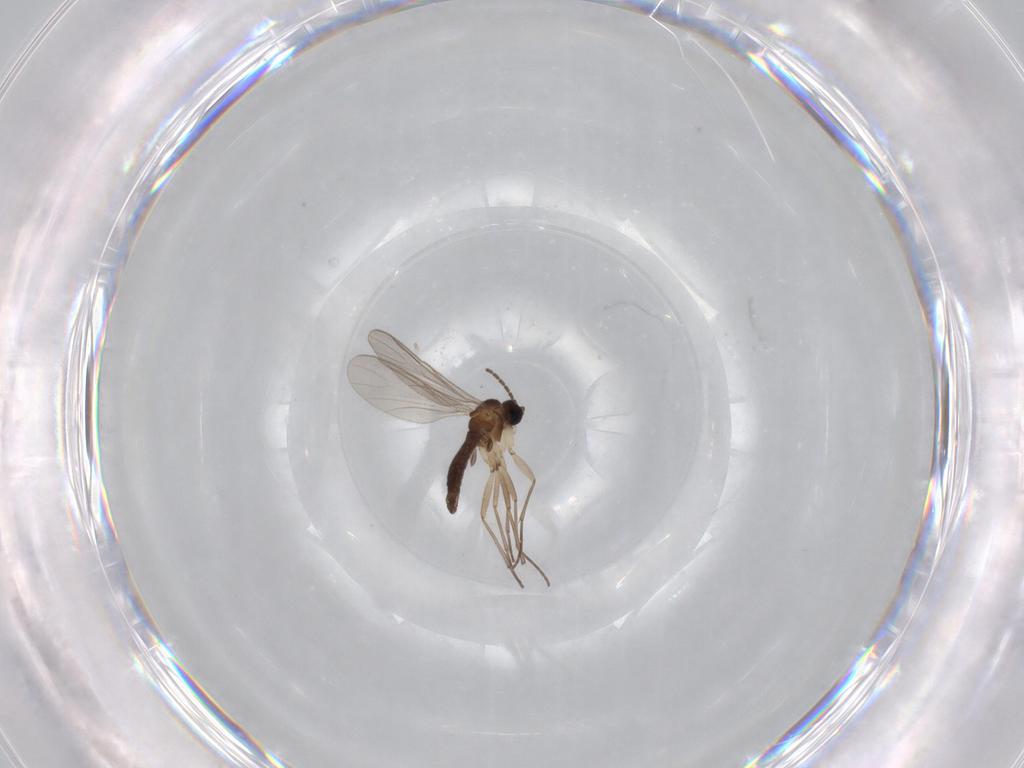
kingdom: Animalia
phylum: Arthropoda
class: Insecta
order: Diptera
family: Sciaridae
